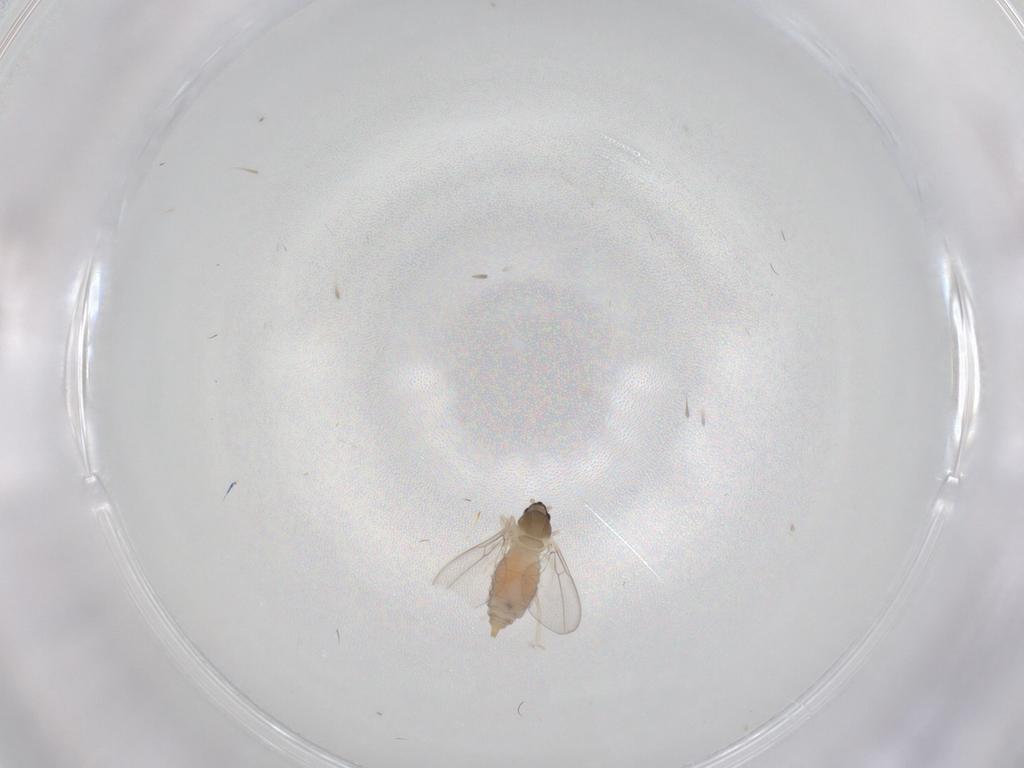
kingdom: Animalia
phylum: Arthropoda
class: Insecta
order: Diptera
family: Cecidomyiidae
